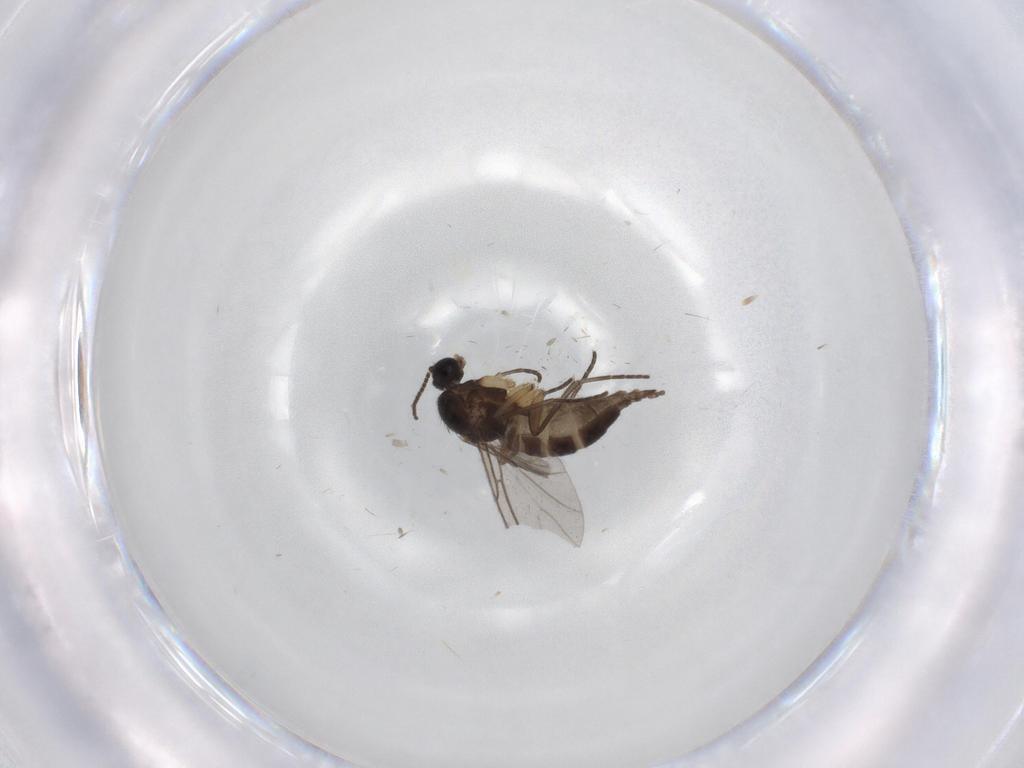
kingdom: Animalia
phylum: Arthropoda
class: Insecta
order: Diptera
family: Sciaridae
